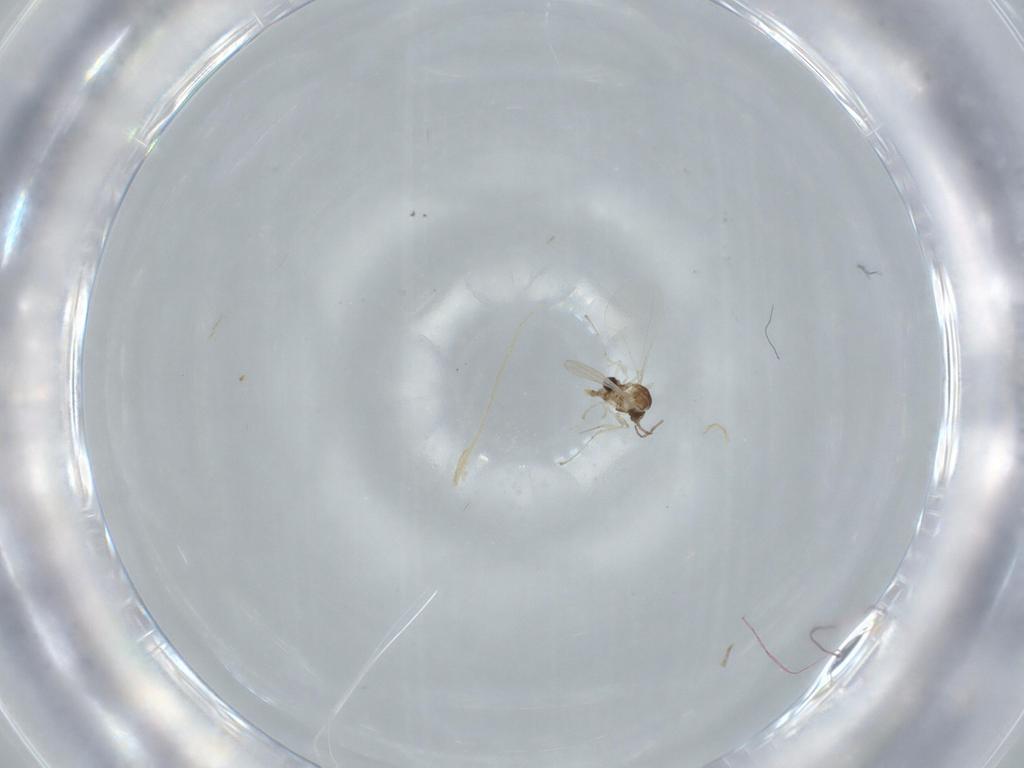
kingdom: Animalia
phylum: Arthropoda
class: Insecta
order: Diptera
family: Cecidomyiidae
